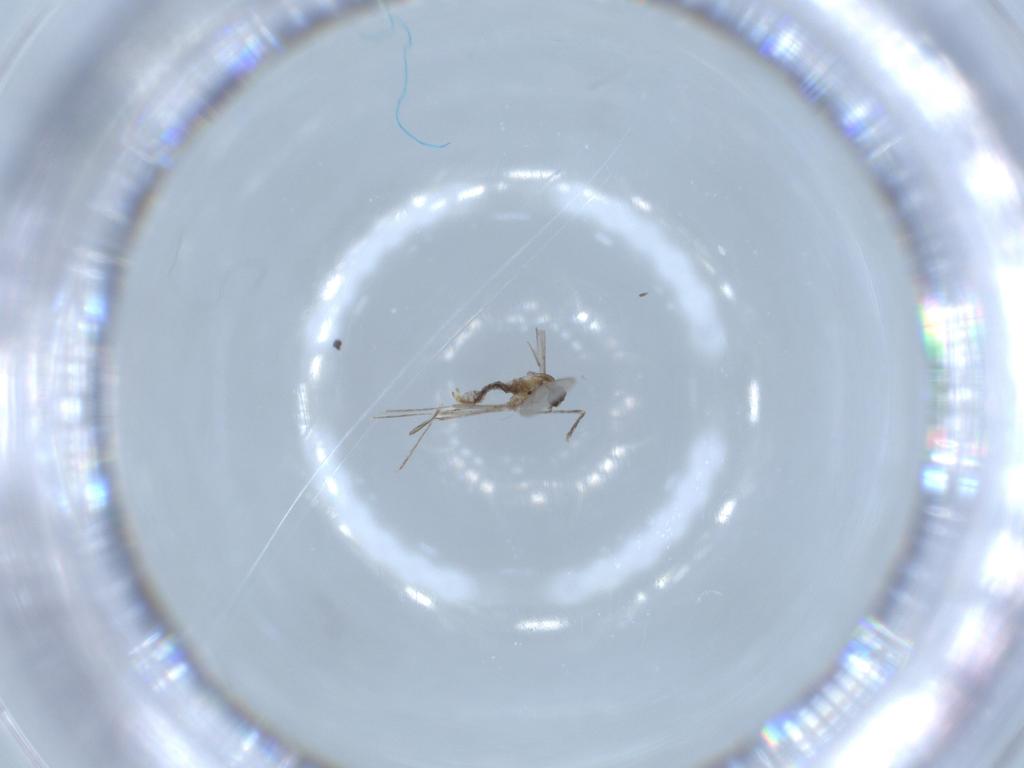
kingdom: Animalia
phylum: Arthropoda
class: Insecta
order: Diptera
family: Cecidomyiidae
